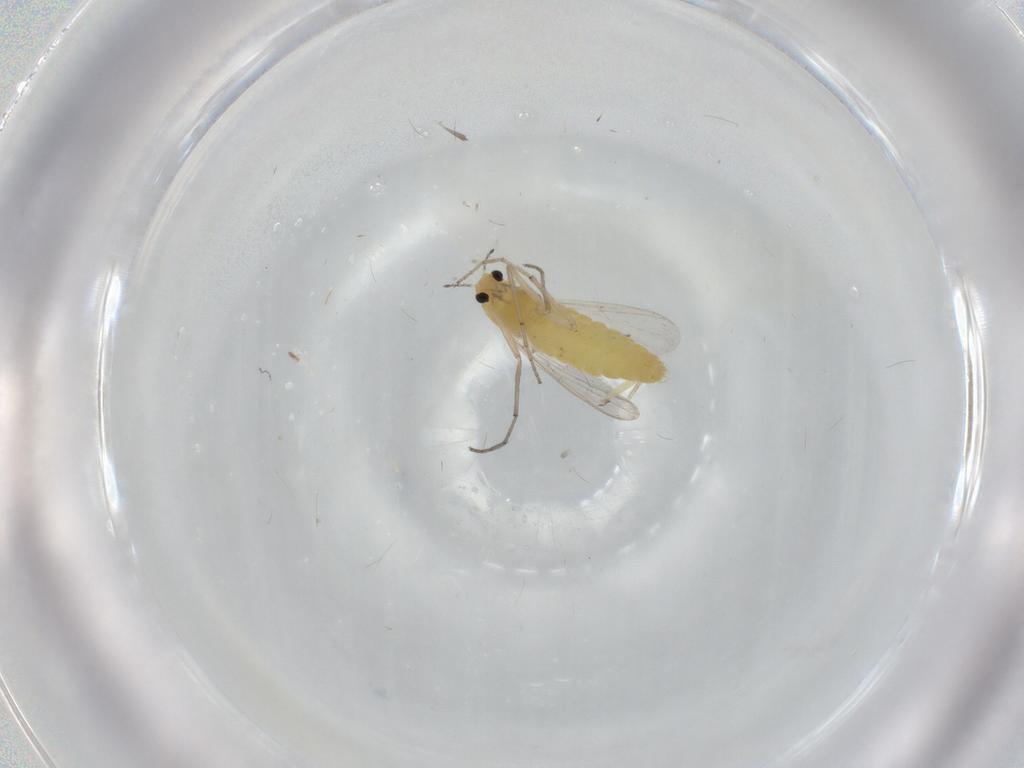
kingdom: Animalia
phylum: Arthropoda
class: Insecta
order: Diptera
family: Chironomidae
